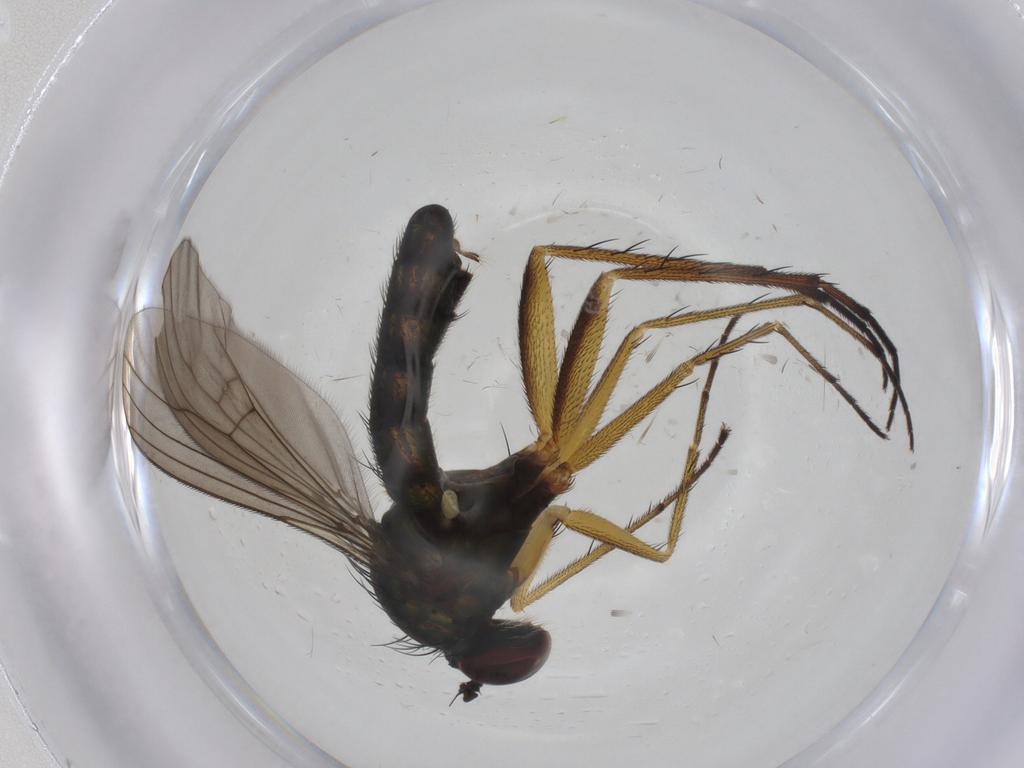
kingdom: Animalia
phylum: Arthropoda
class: Insecta
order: Diptera
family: Dolichopodidae
